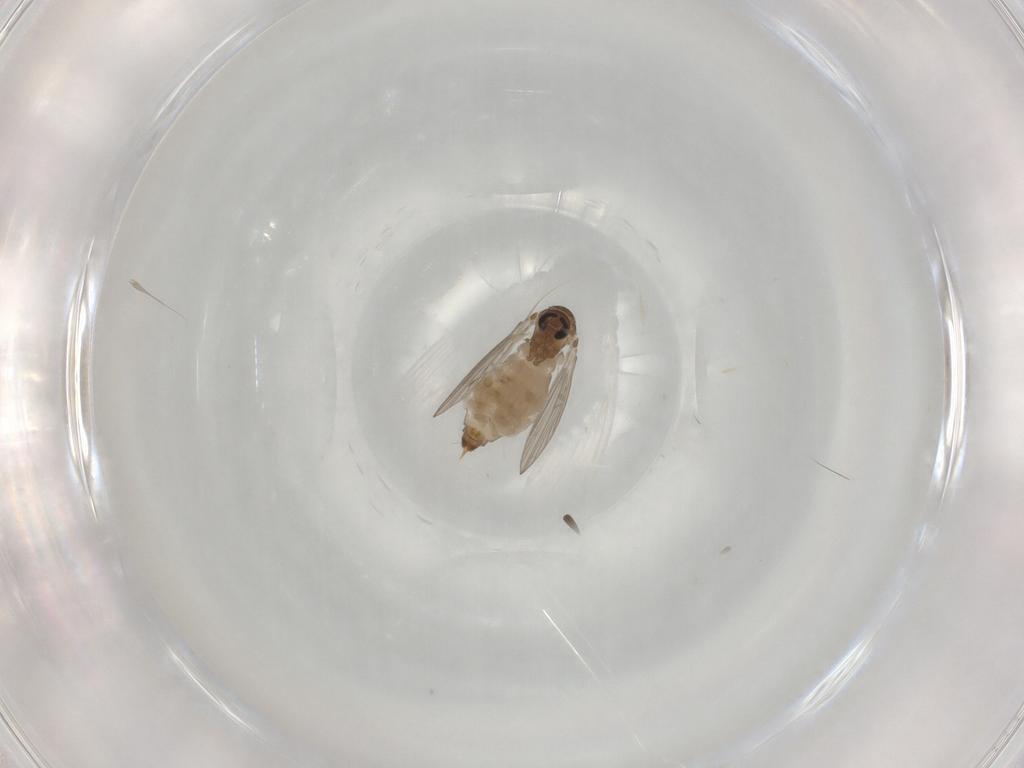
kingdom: Animalia
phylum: Arthropoda
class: Insecta
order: Diptera
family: Psychodidae
